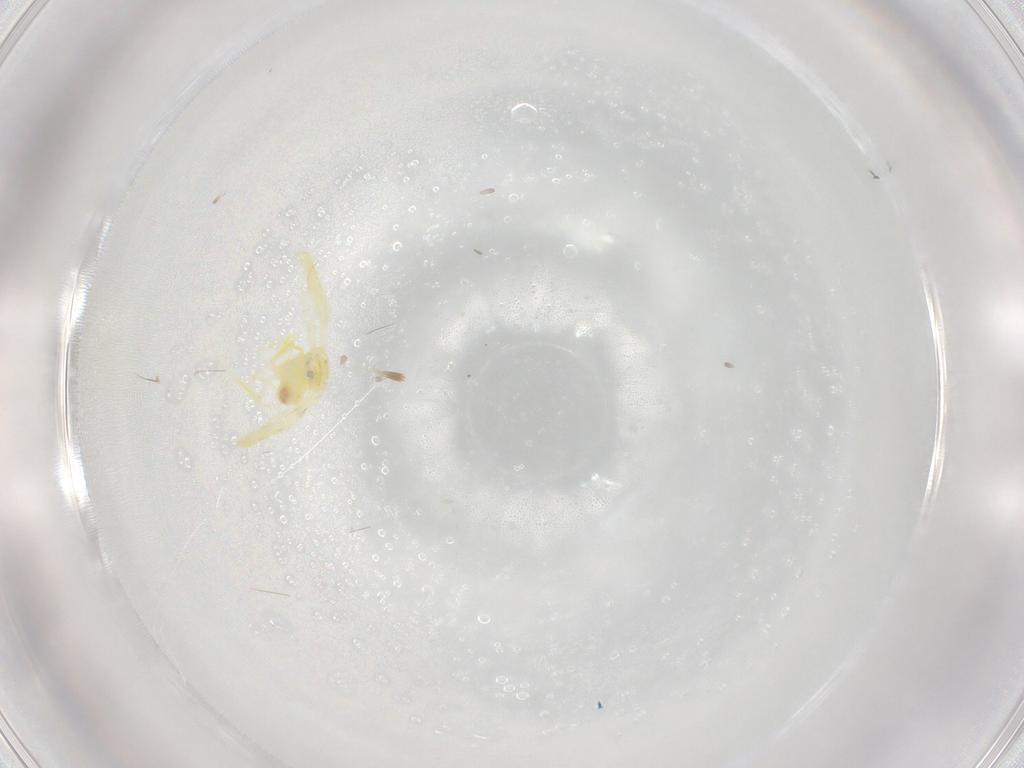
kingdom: Animalia
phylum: Arthropoda
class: Insecta
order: Hemiptera
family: Aleyrodidae
